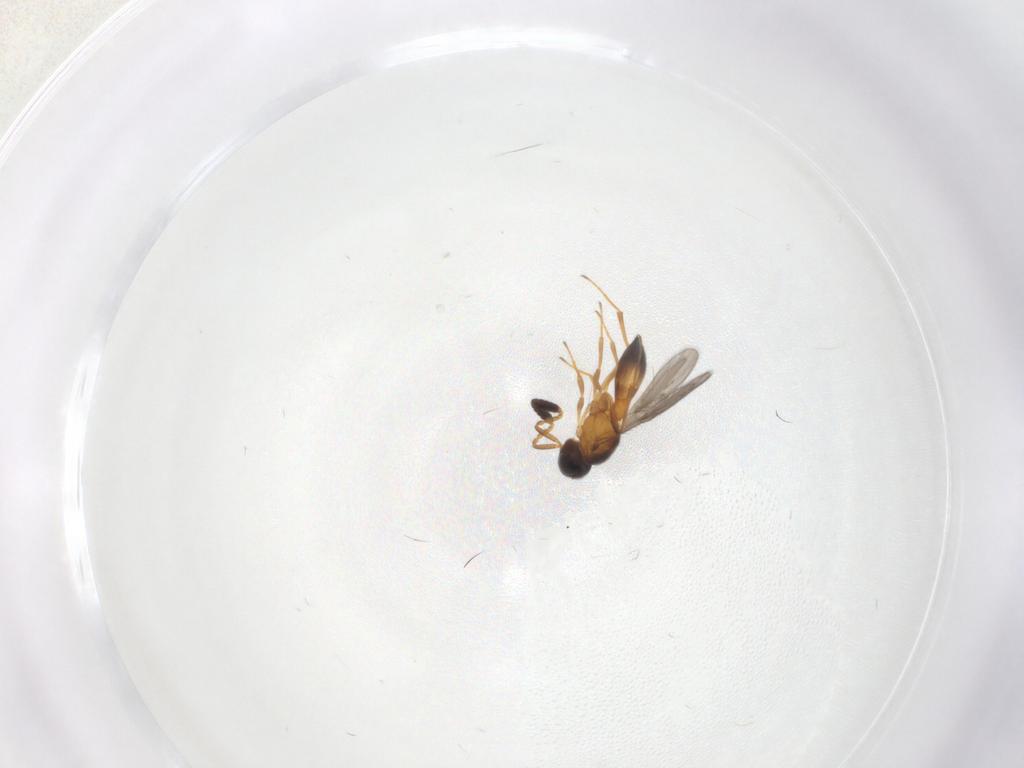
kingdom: Animalia
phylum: Arthropoda
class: Insecta
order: Hymenoptera
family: Scelionidae
